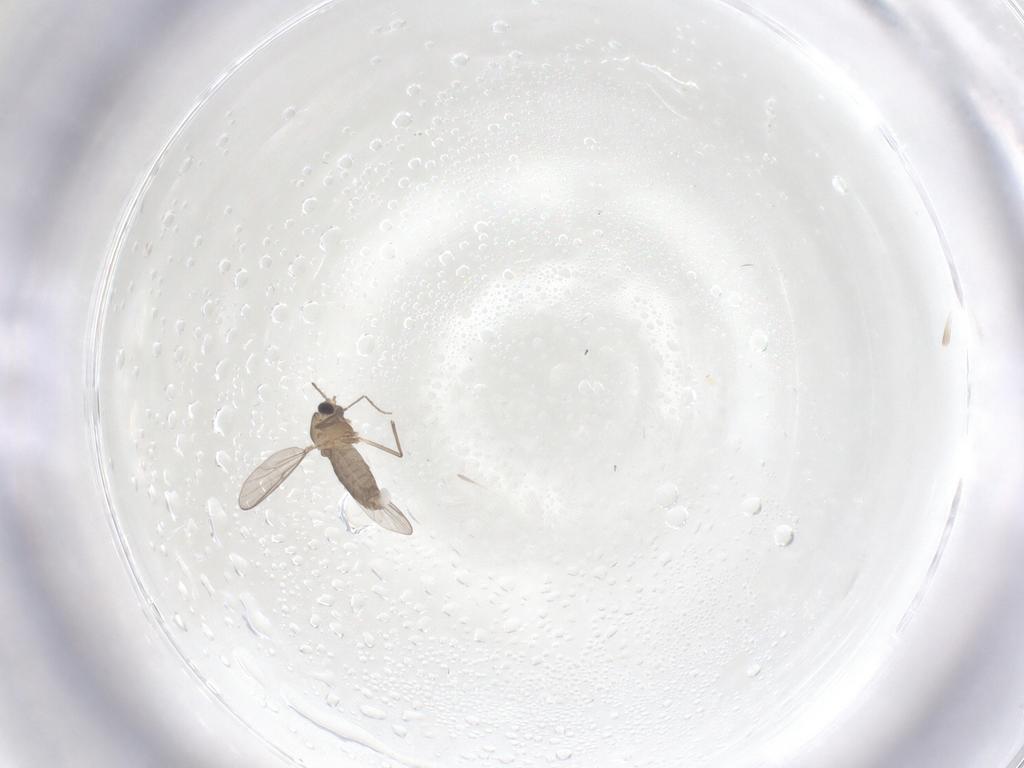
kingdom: Animalia
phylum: Arthropoda
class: Insecta
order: Diptera
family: Chironomidae
